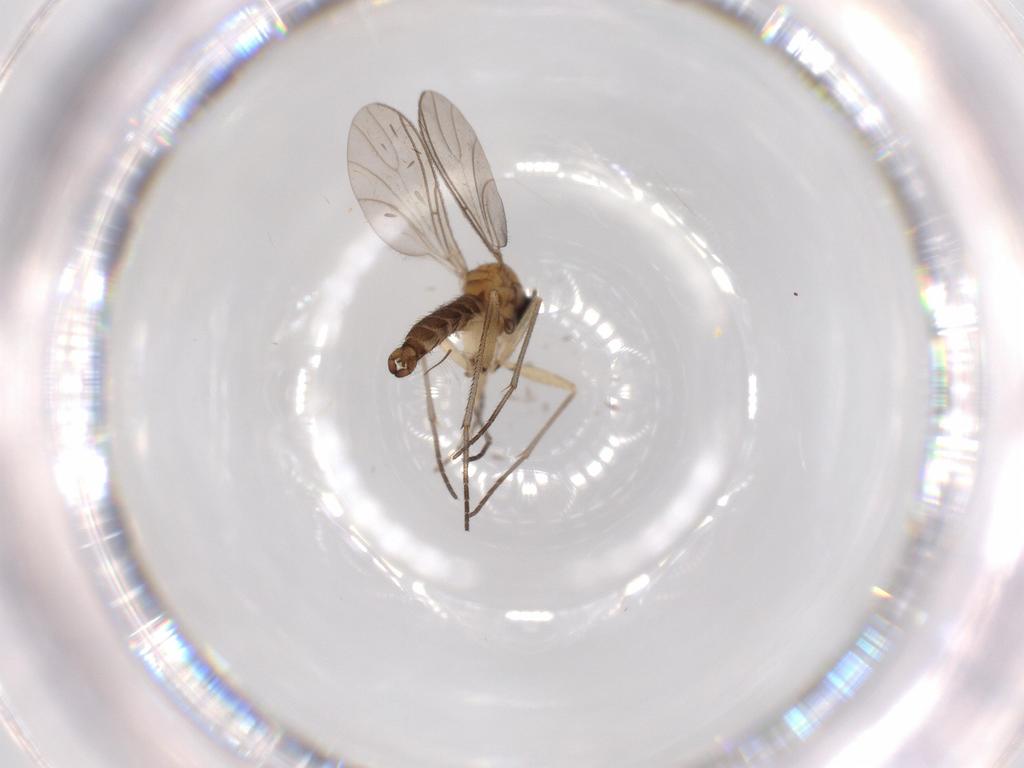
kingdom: Animalia
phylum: Arthropoda
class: Insecta
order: Diptera
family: Sciaridae
